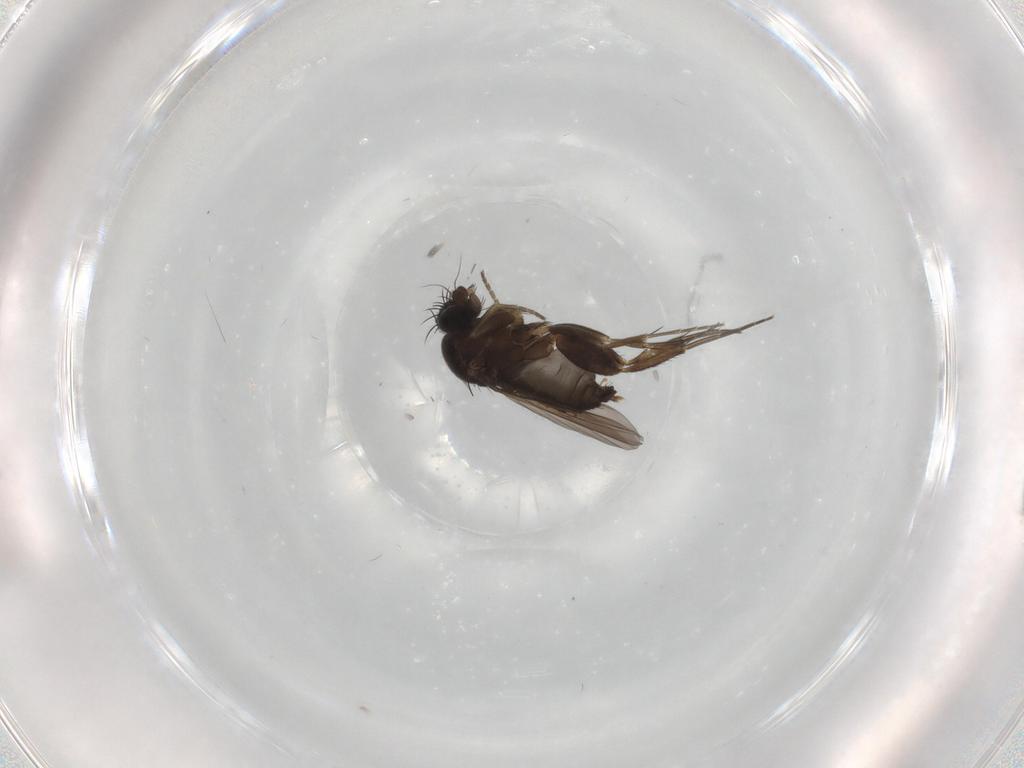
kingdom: Animalia
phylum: Arthropoda
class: Insecta
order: Diptera
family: Phoridae
